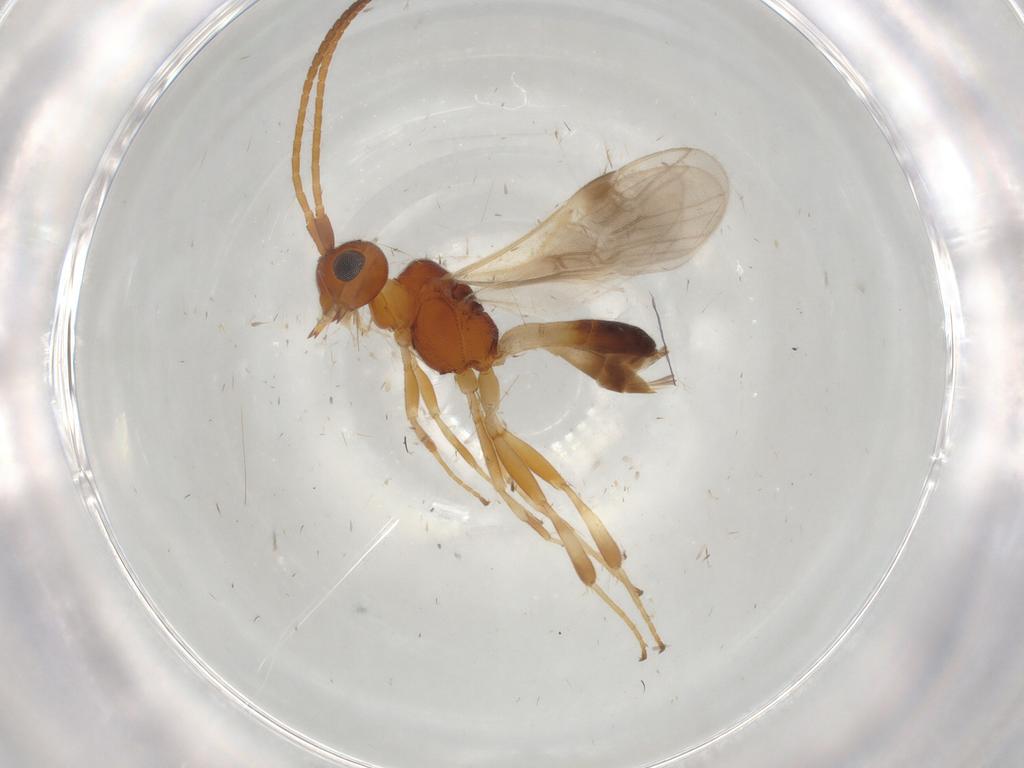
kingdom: Animalia
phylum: Arthropoda
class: Insecta
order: Hymenoptera
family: Braconidae
